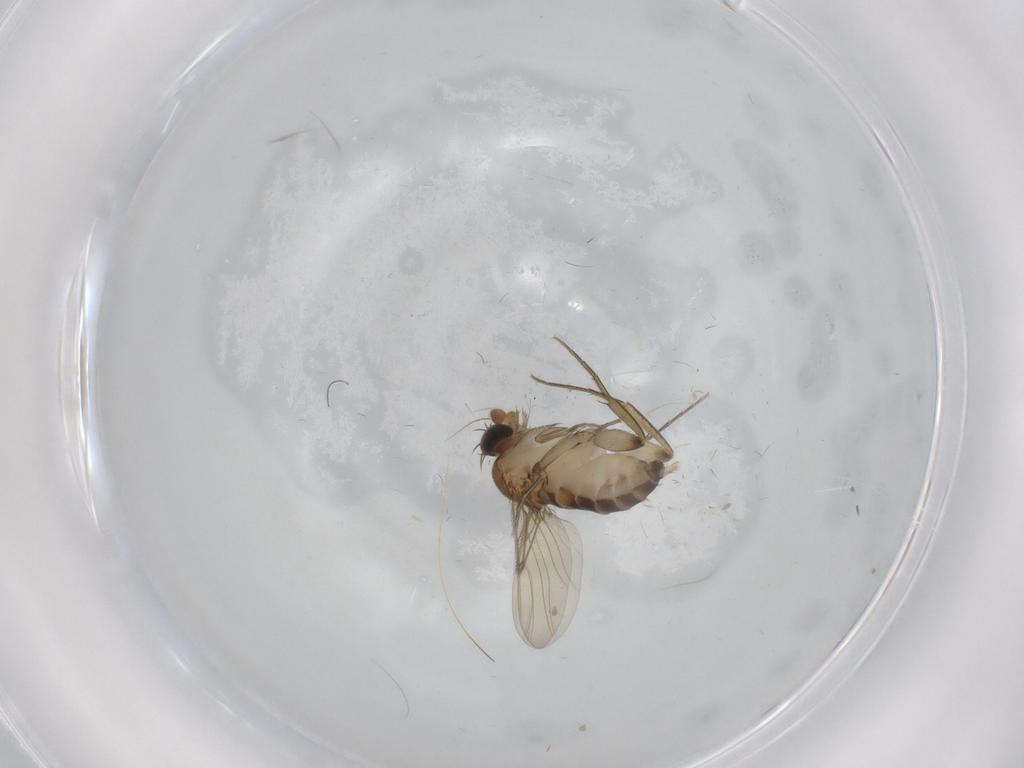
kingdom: Animalia
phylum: Arthropoda
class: Insecta
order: Diptera
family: Phoridae
